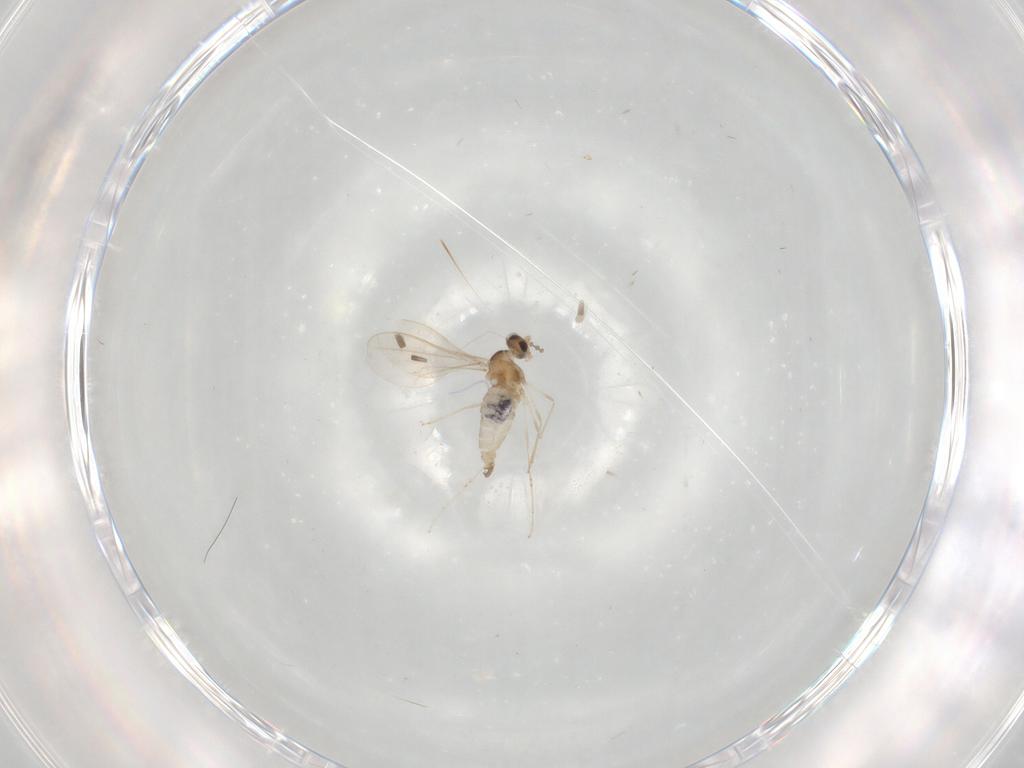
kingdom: Animalia
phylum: Arthropoda
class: Insecta
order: Diptera
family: Cecidomyiidae
